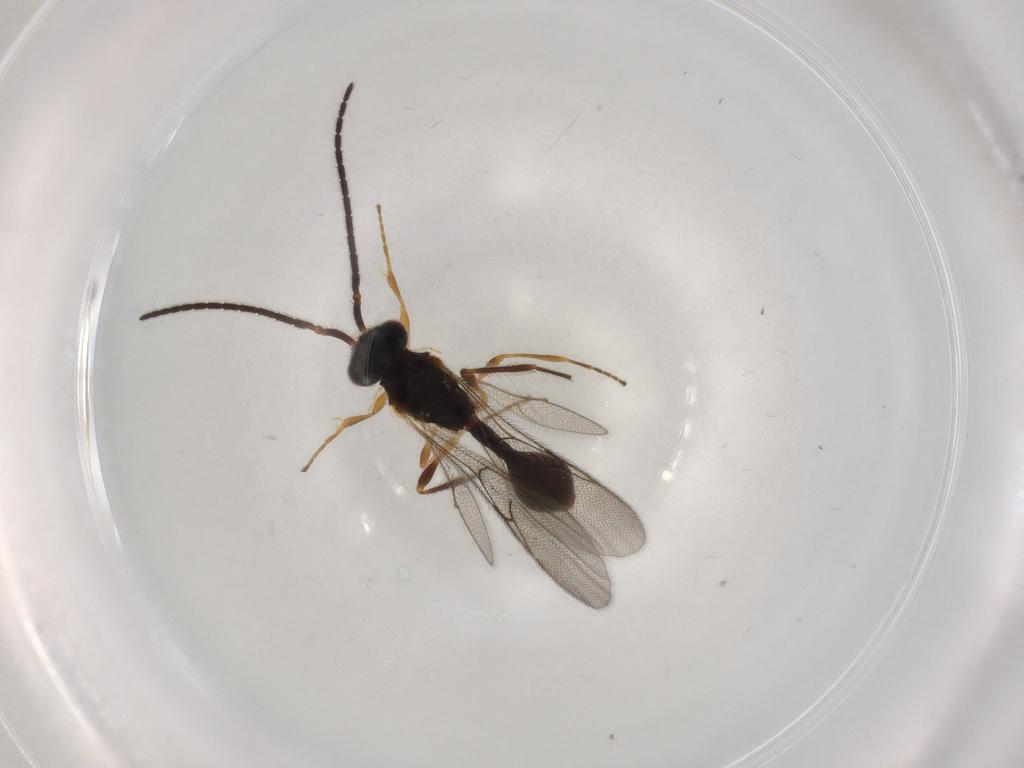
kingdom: Animalia
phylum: Arthropoda
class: Insecta
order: Hymenoptera
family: Diapriidae
